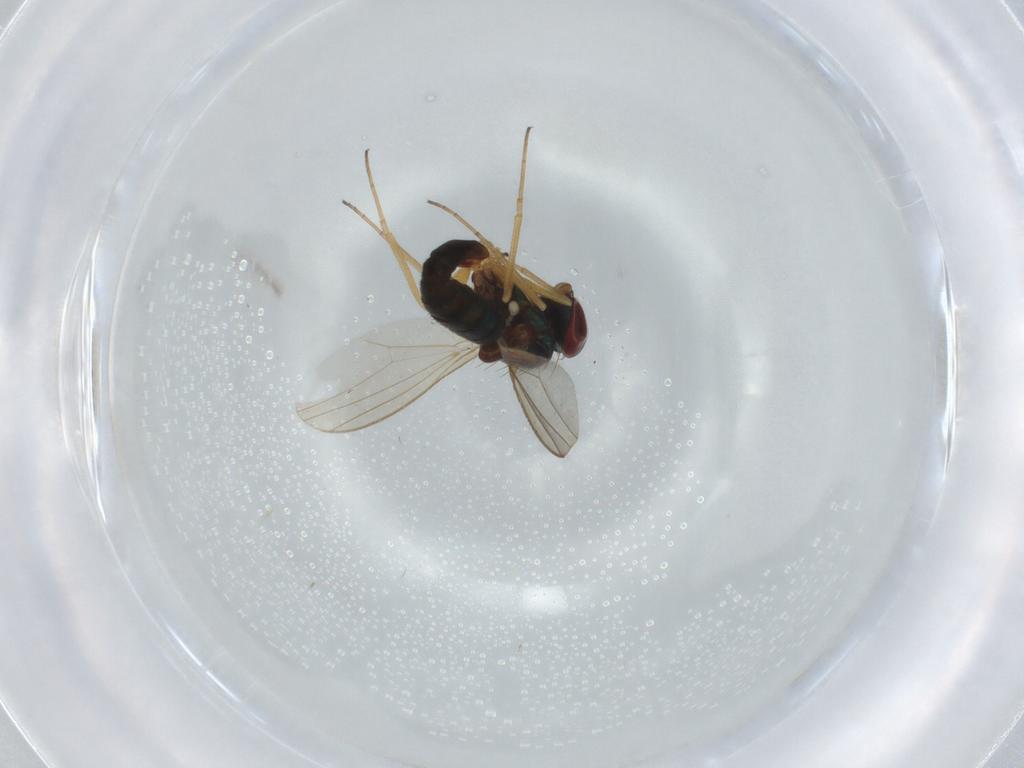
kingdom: Animalia
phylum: Arthropoda
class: Insecta
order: Diptera
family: Dolichopodidae
